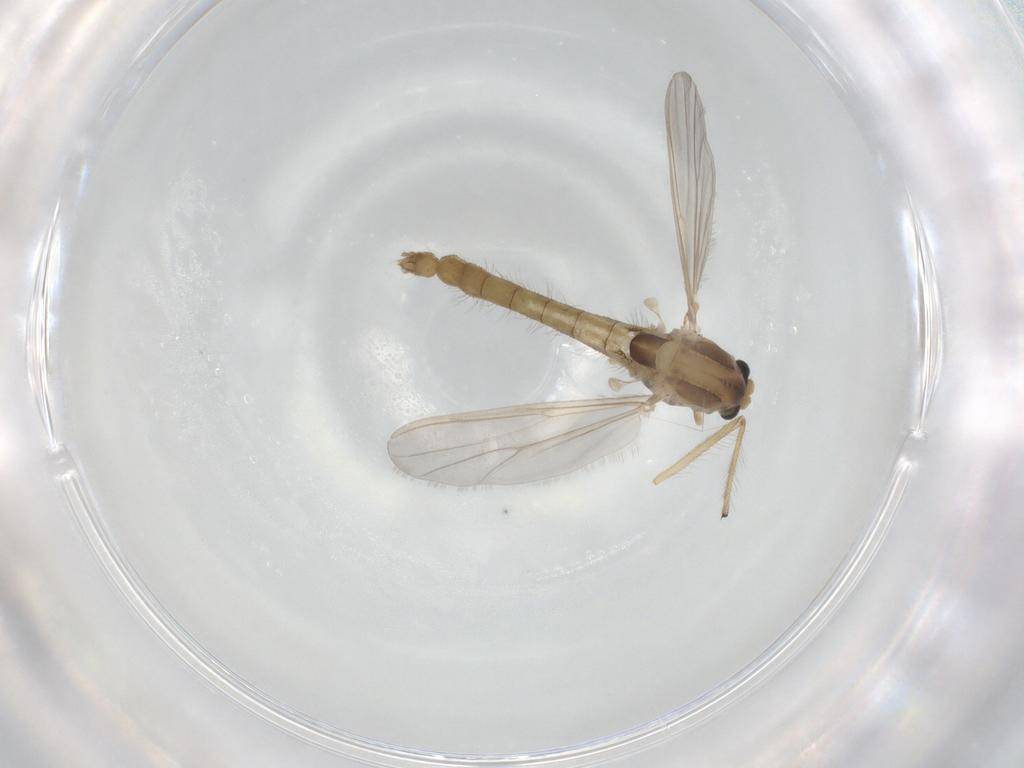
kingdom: Animalia
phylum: Arthropoda
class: Insecta
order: Diptera
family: Chironomidae
